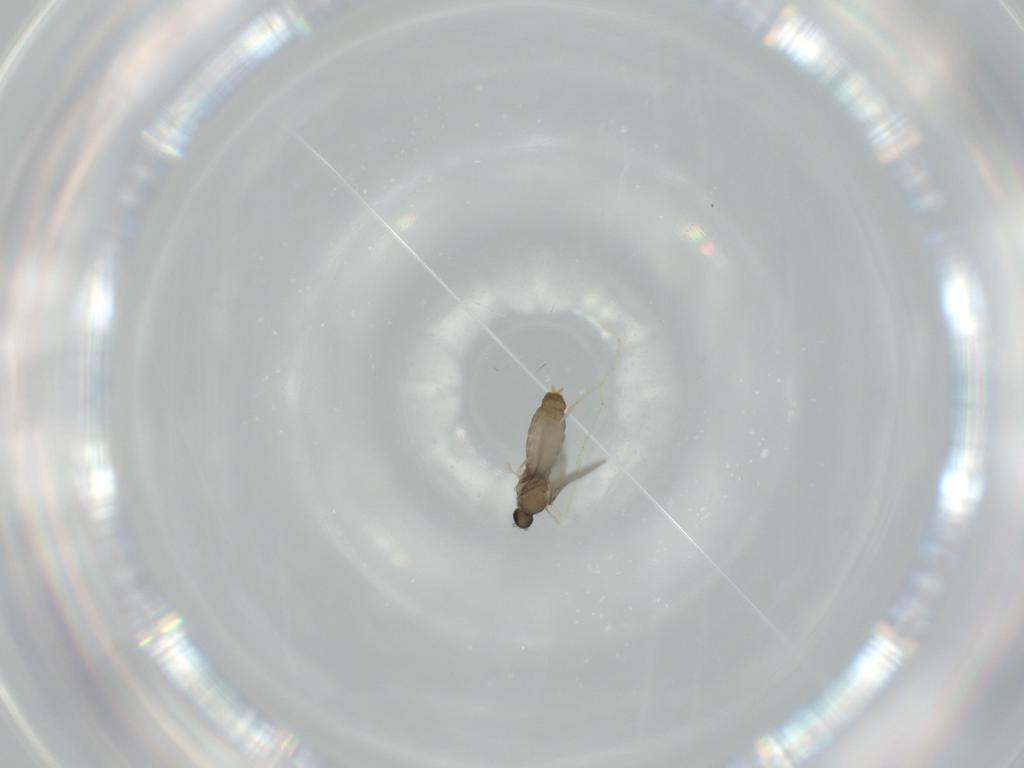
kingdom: Animalia
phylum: Arthropoda
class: Insecta
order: Diptera
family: Milichiidae
